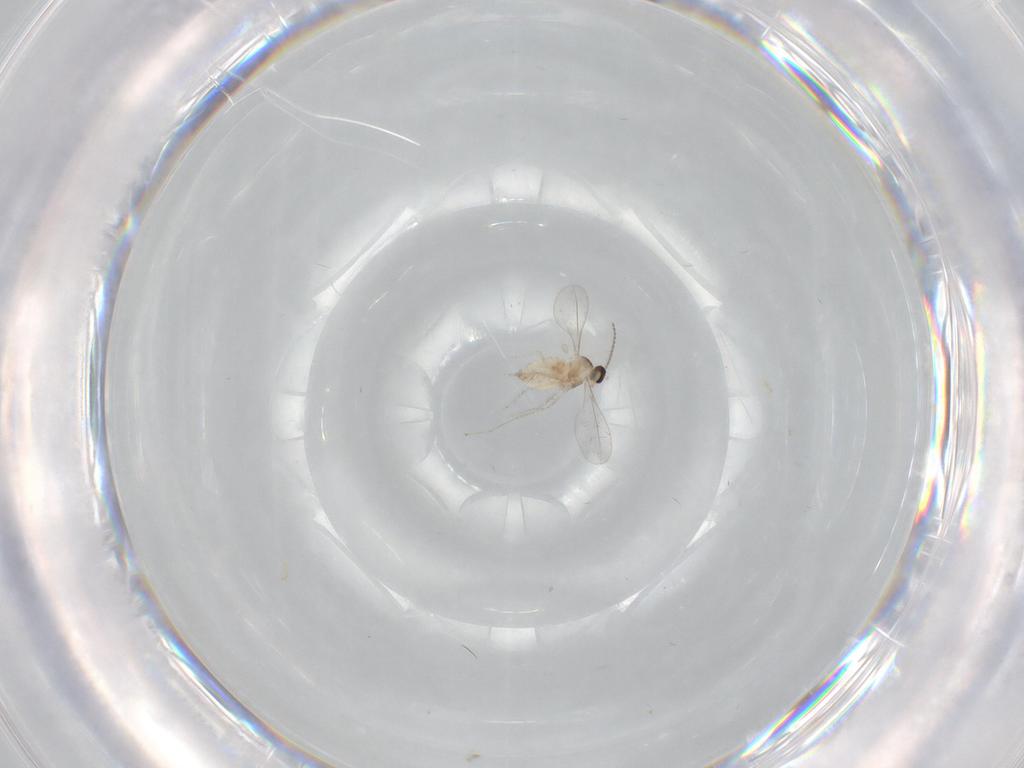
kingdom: Animalia
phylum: Arthropoda
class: Insecta
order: Diptera
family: Cecidomyiidae
